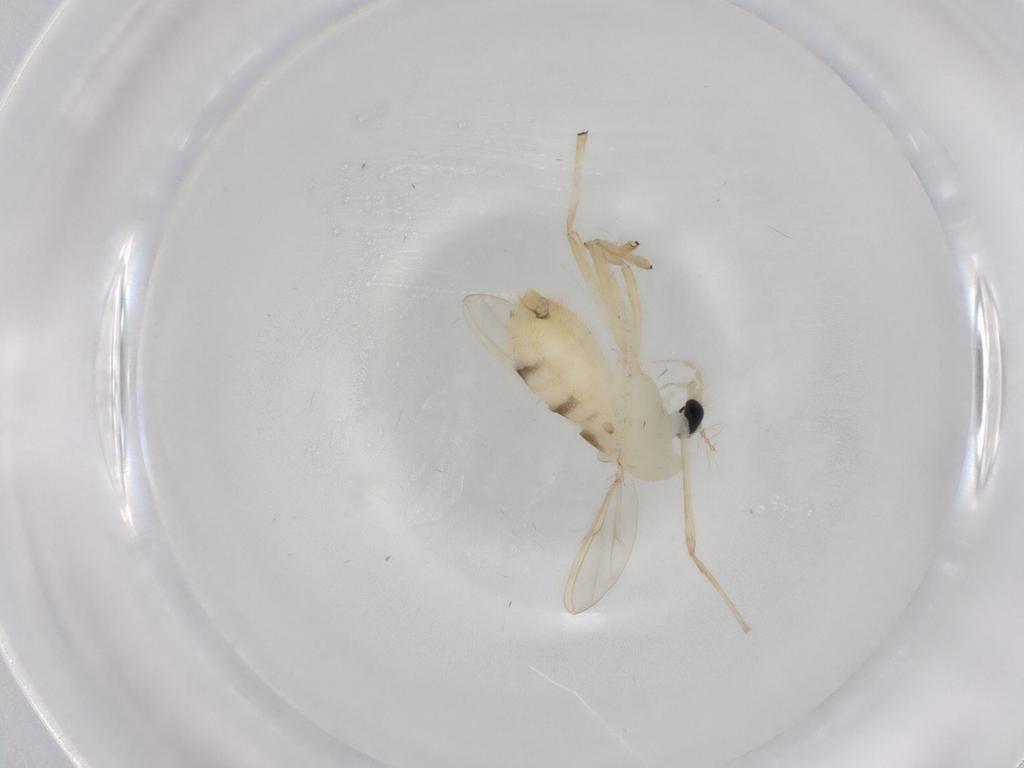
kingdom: Animalia
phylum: Arthropoda
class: Insecta
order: Diptera
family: Chironomidae
